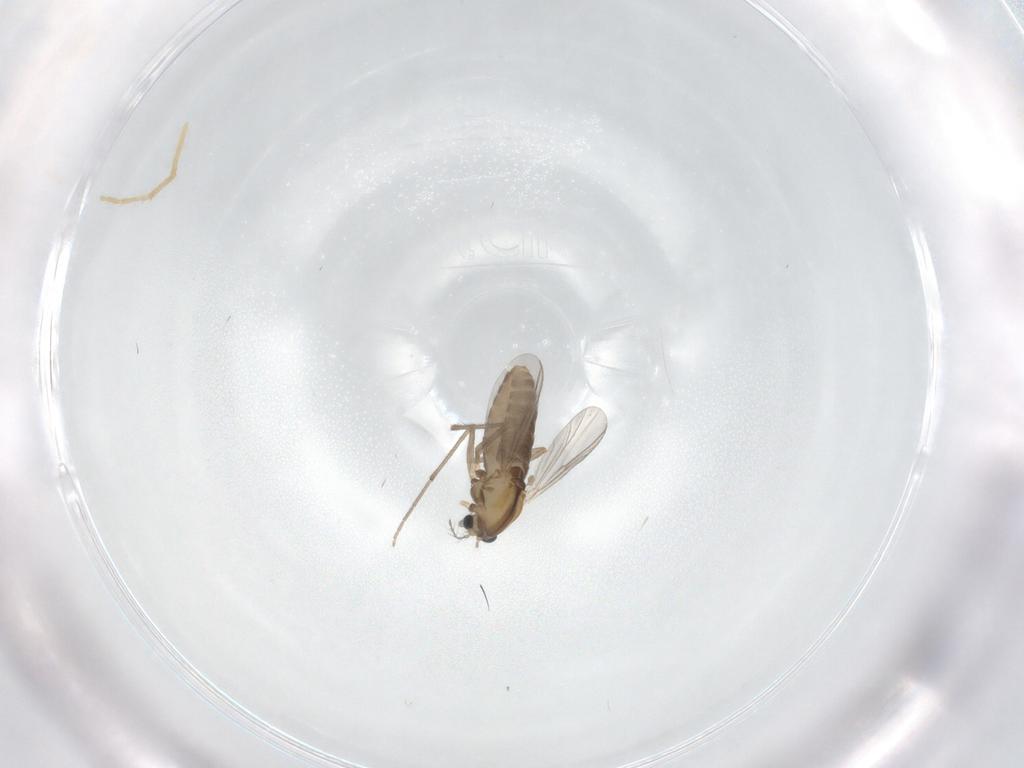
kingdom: Animalia
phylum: Arthropoda
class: Insecta
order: Diptera
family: Chironomidae
